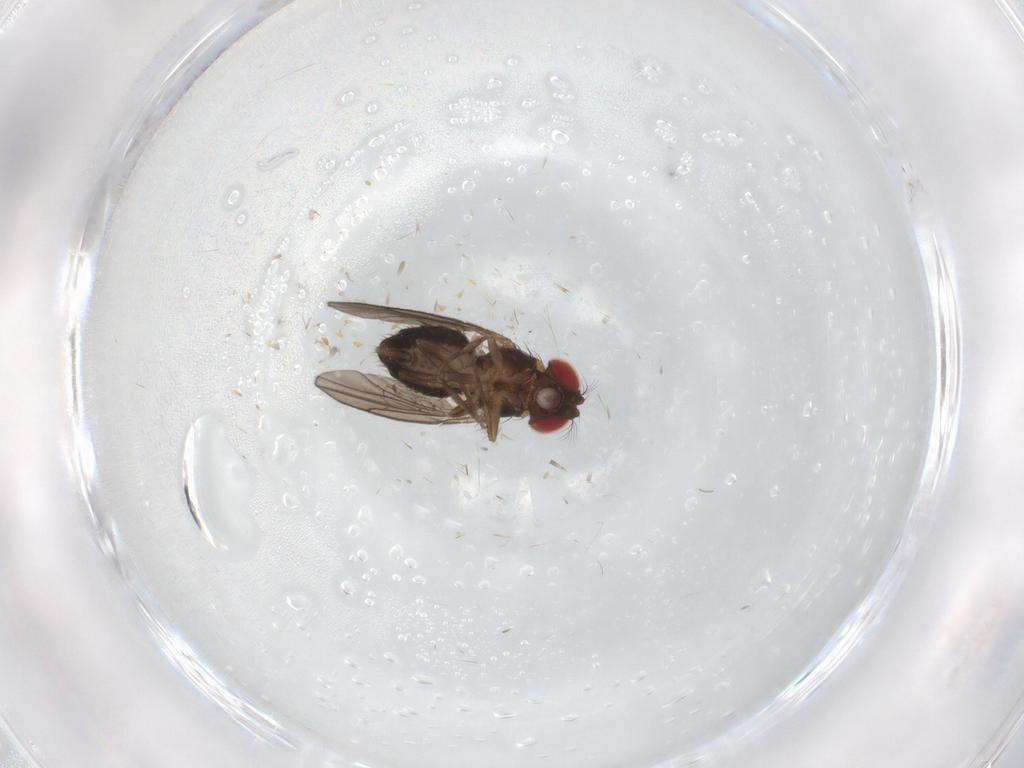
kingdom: Animalia
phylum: Arthropoda
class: Insecta
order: Diptera
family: Drosophilidae
